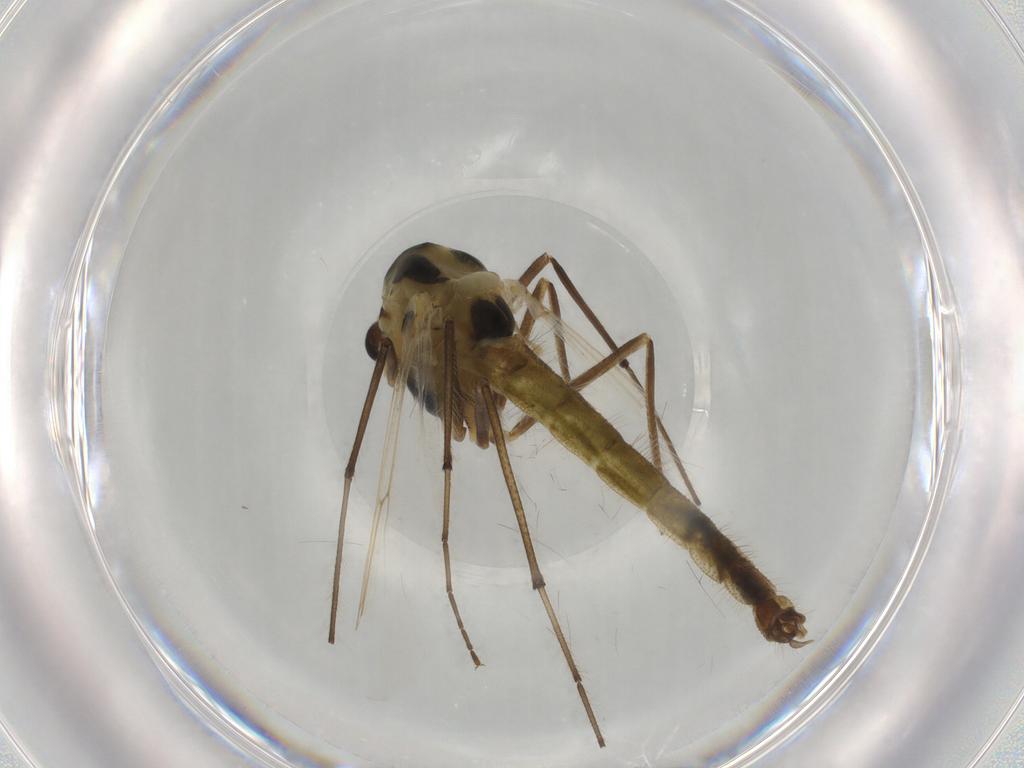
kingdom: Animalia
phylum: Arthropoda
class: Insecta
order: Diptera
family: Chironomidae
